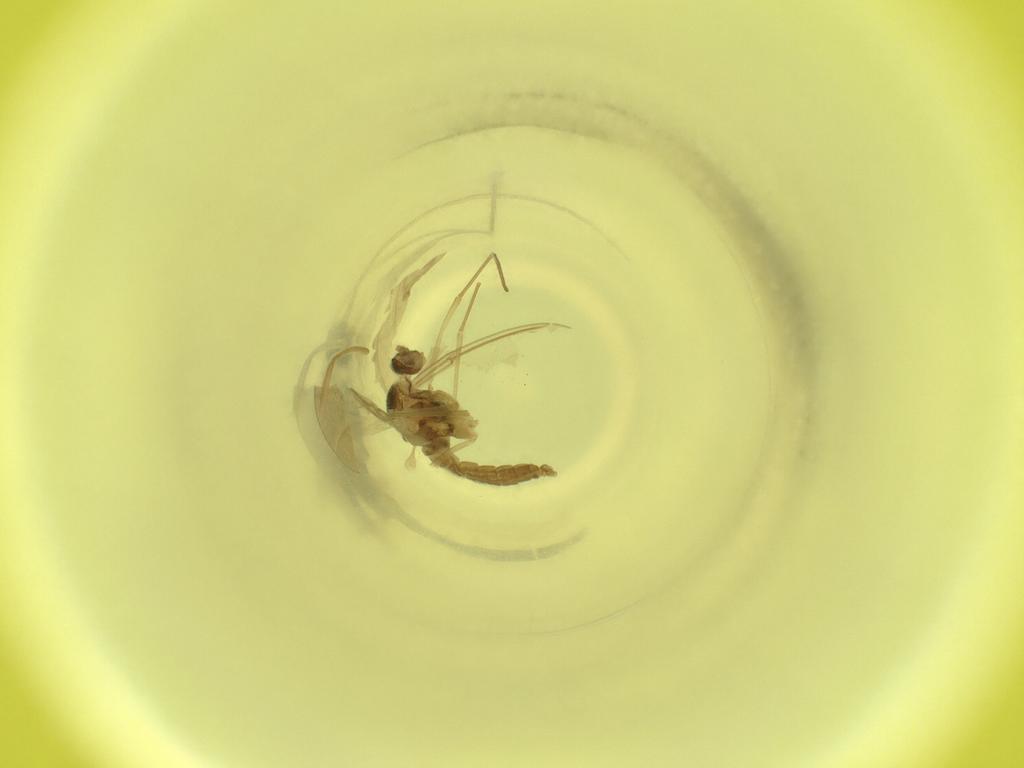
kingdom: Animalia
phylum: Arthropoda
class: Insecta
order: Diptera
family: Cecidomyiidae
